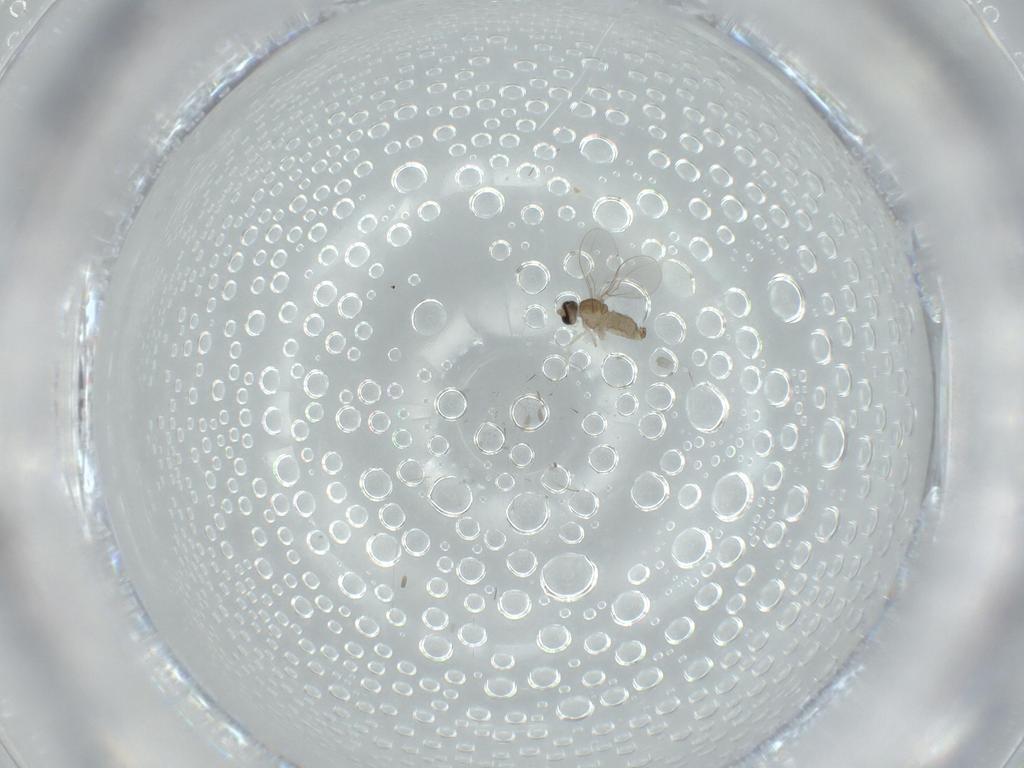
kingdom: Animalia
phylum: Arthropoda
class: Insecta
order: Diptera
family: Cecidomyiidae
